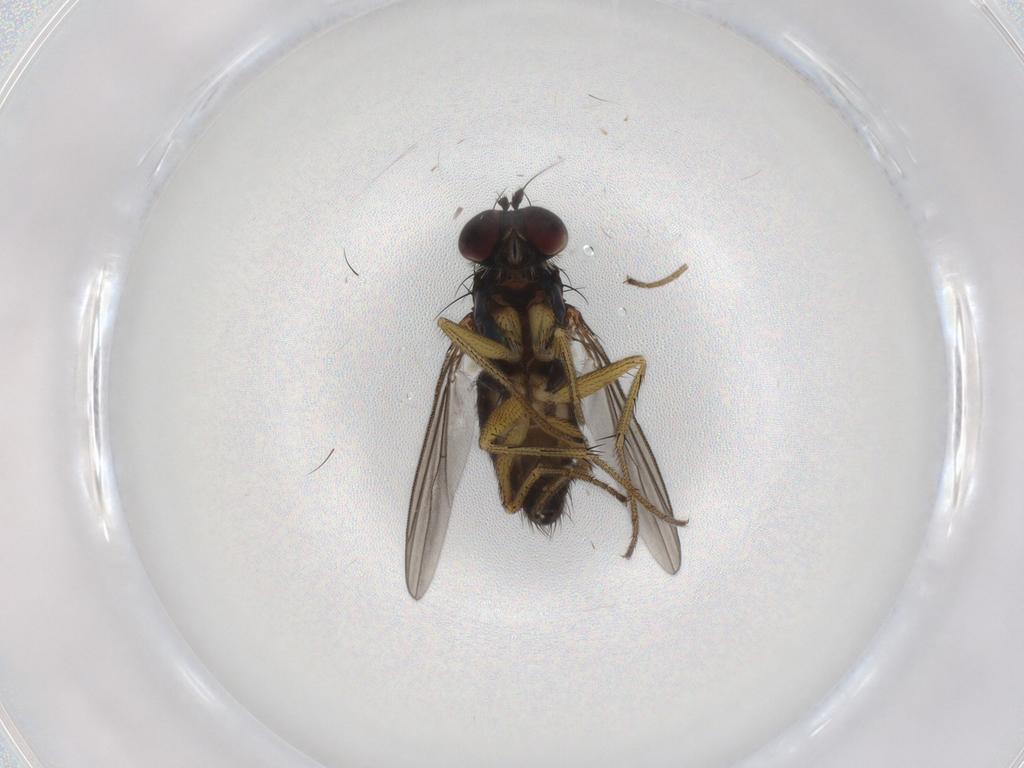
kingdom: Animalia
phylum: Arthropoda
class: Insecta
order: Diptera
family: Dolichopodidae
